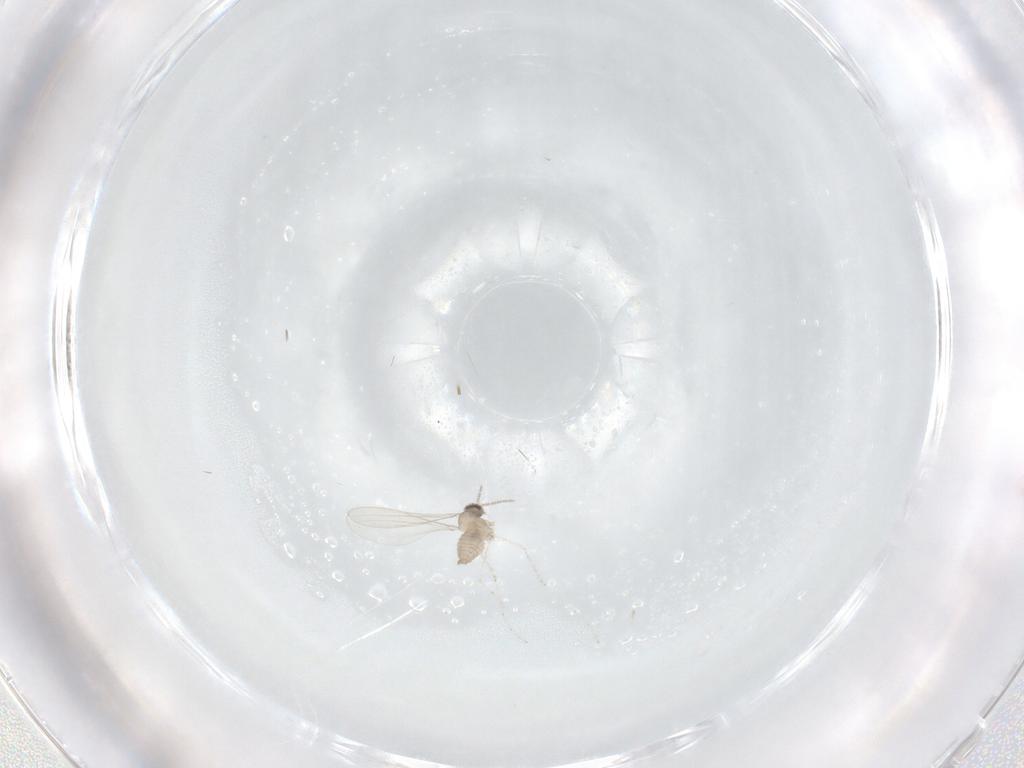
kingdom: Animalia
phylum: Arthropoda
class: Insecta
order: Diptera
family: Cecidomyiidae
